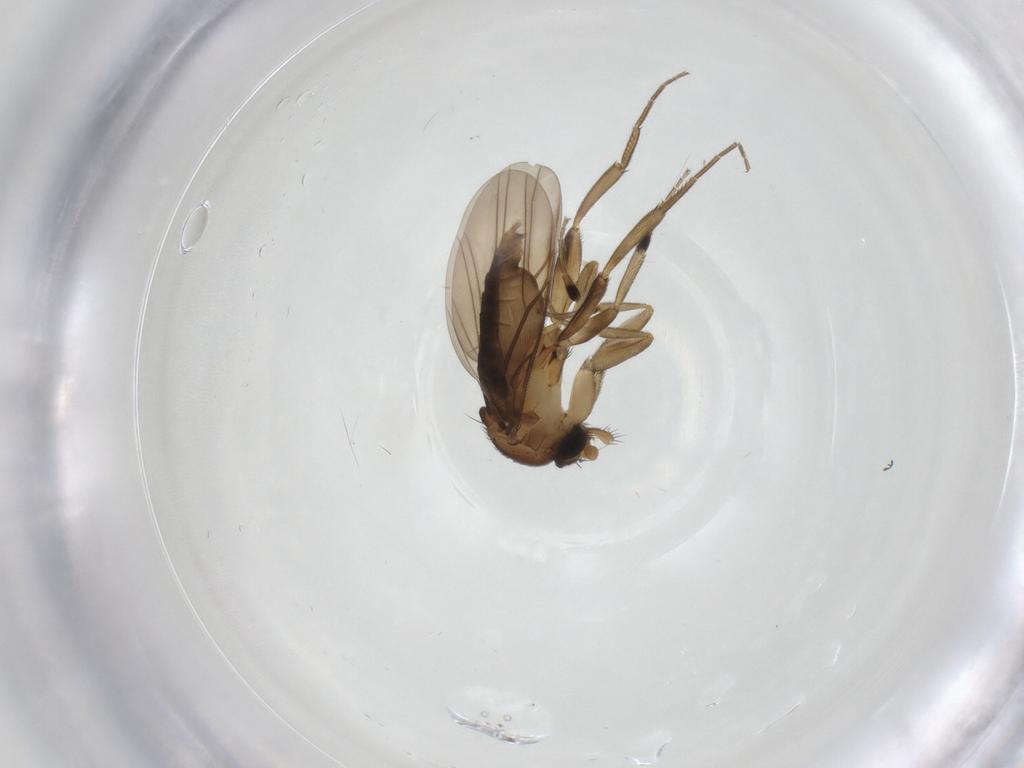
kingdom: Animalia
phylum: Arthropoda
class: Insecta
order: Diptera
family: Phoridae
